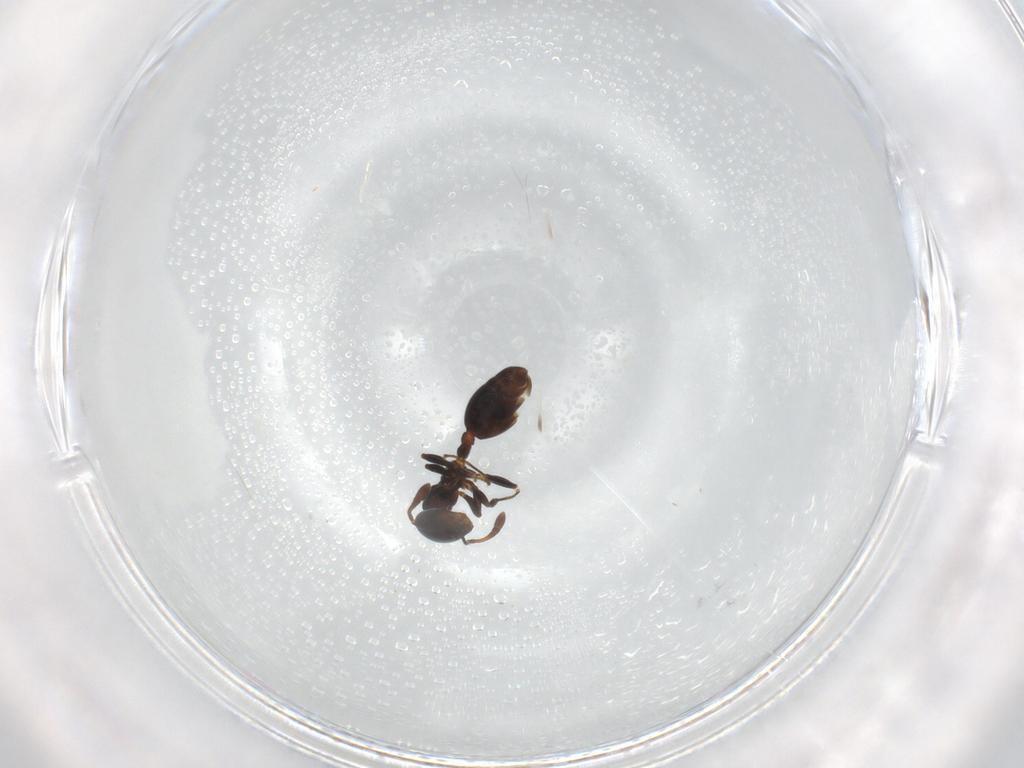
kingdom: Animalia
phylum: Arthropoda
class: Insecta
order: Hymenoptera
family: Formicidae
